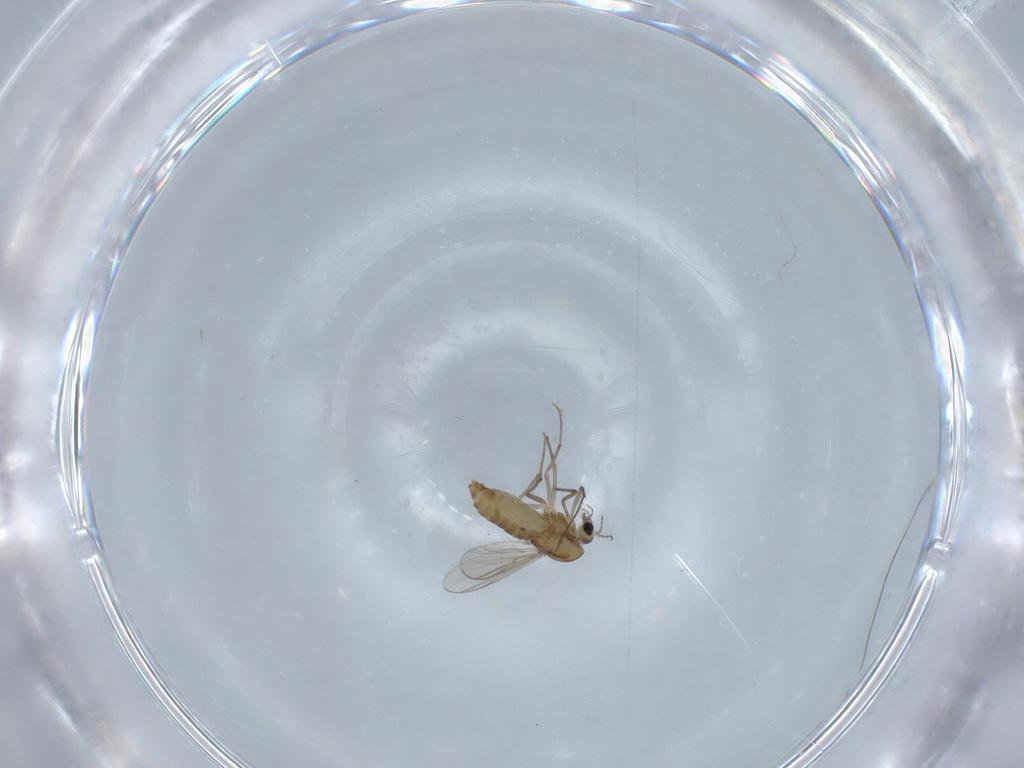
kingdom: Animalia
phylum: Arthropoda
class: Insecta
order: Diptera
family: Chironomidae
